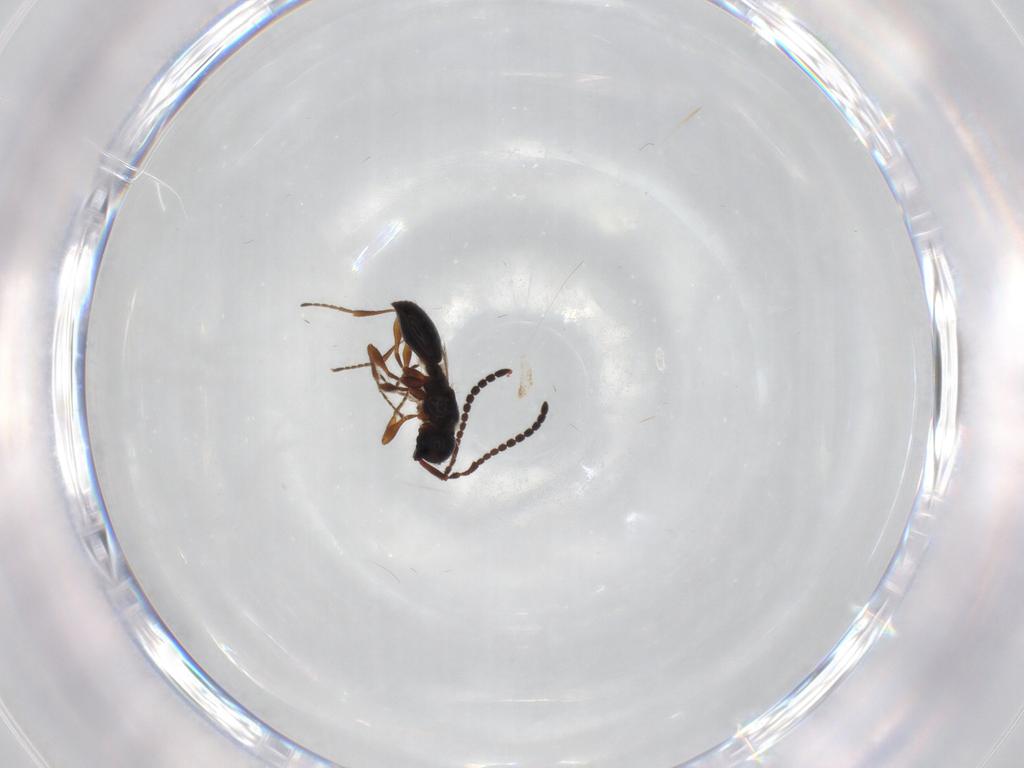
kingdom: Animalia
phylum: Arthropoda
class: Insecta
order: Hymenoptera
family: Diapriidae
